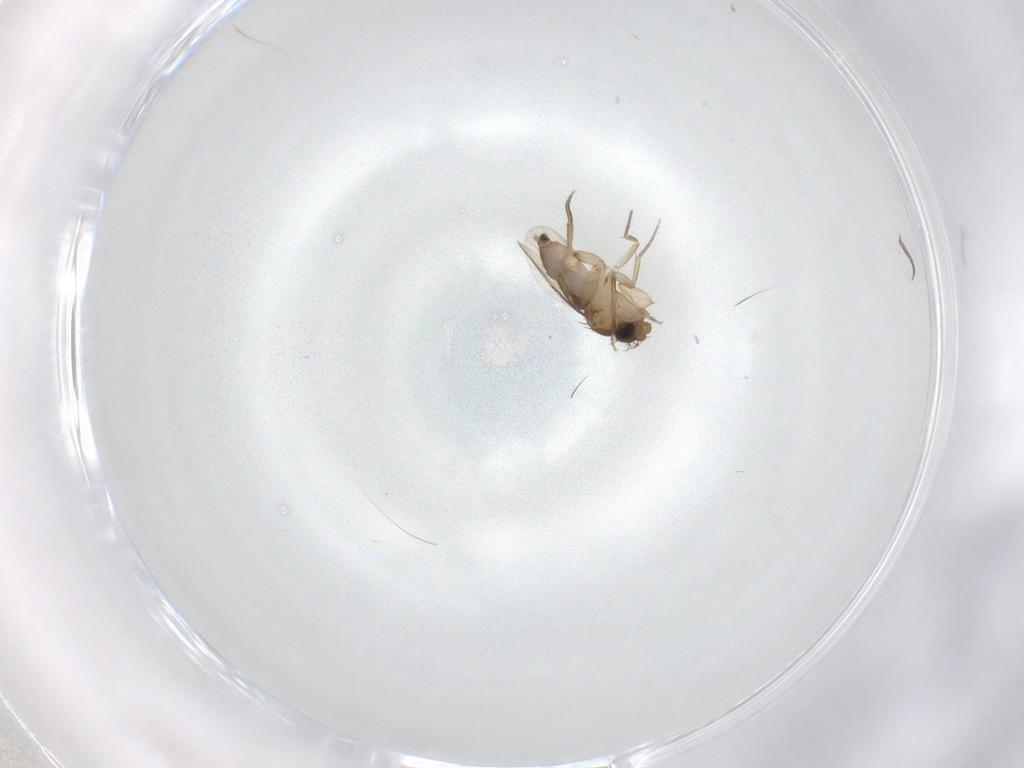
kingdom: Animalia
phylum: Arthropoda
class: Insecta
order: Diptera
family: Phoridae
